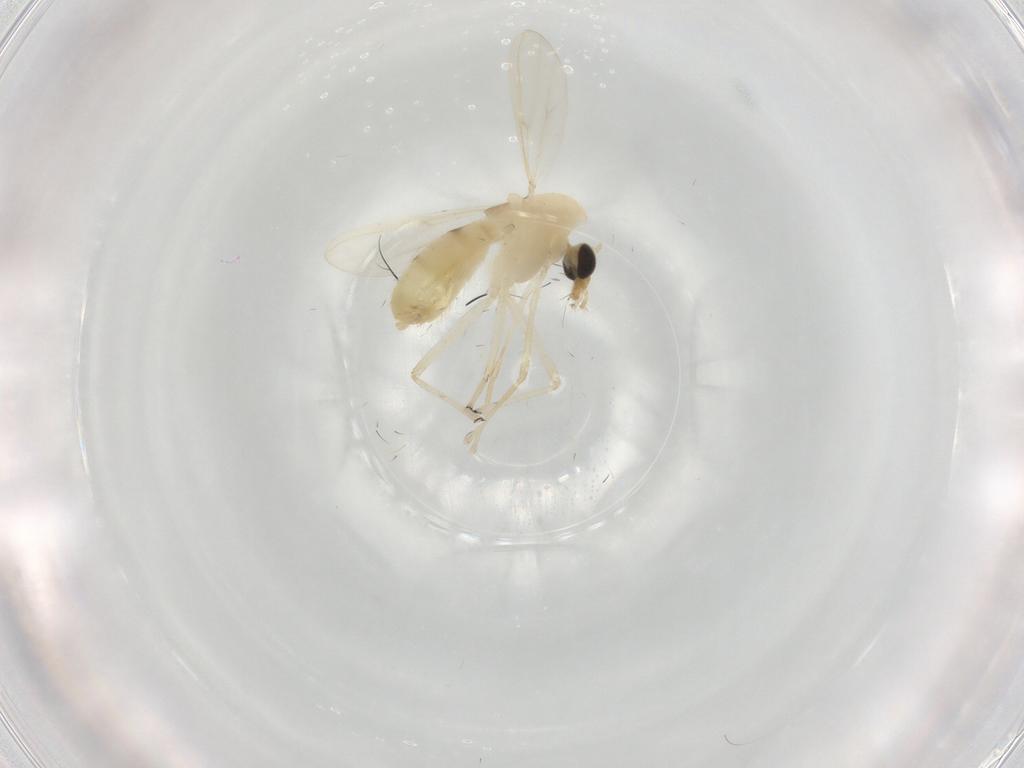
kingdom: Animalia
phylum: Arthropoda
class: Insecta
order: Diptera
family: Chironomidae
